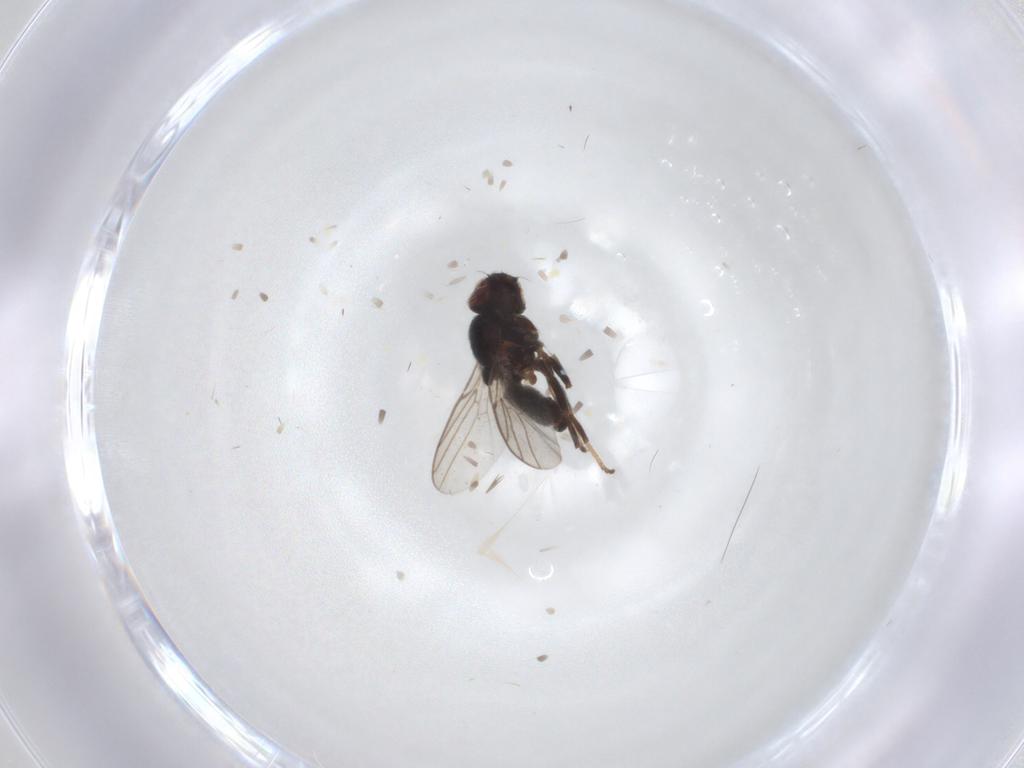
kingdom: Animalia
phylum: Arthropoda
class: Insecta
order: Diptera
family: Chloropidae
